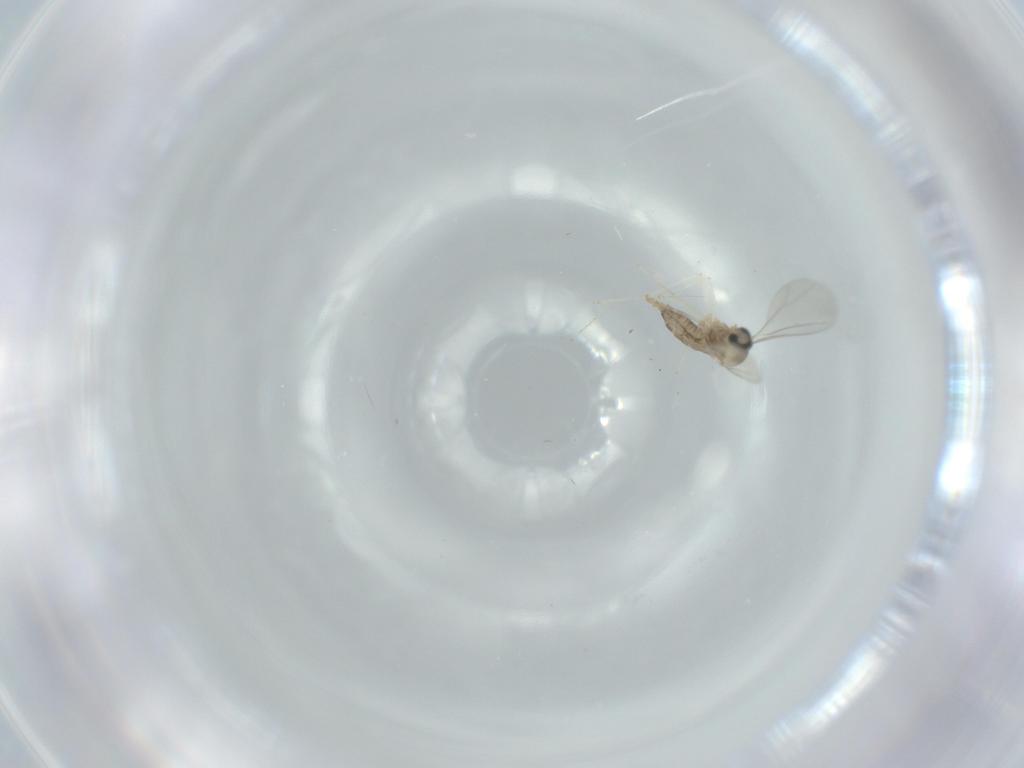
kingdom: Animalia
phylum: Arthropoda
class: Insecta
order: Diptera
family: Cecidomyiidae
